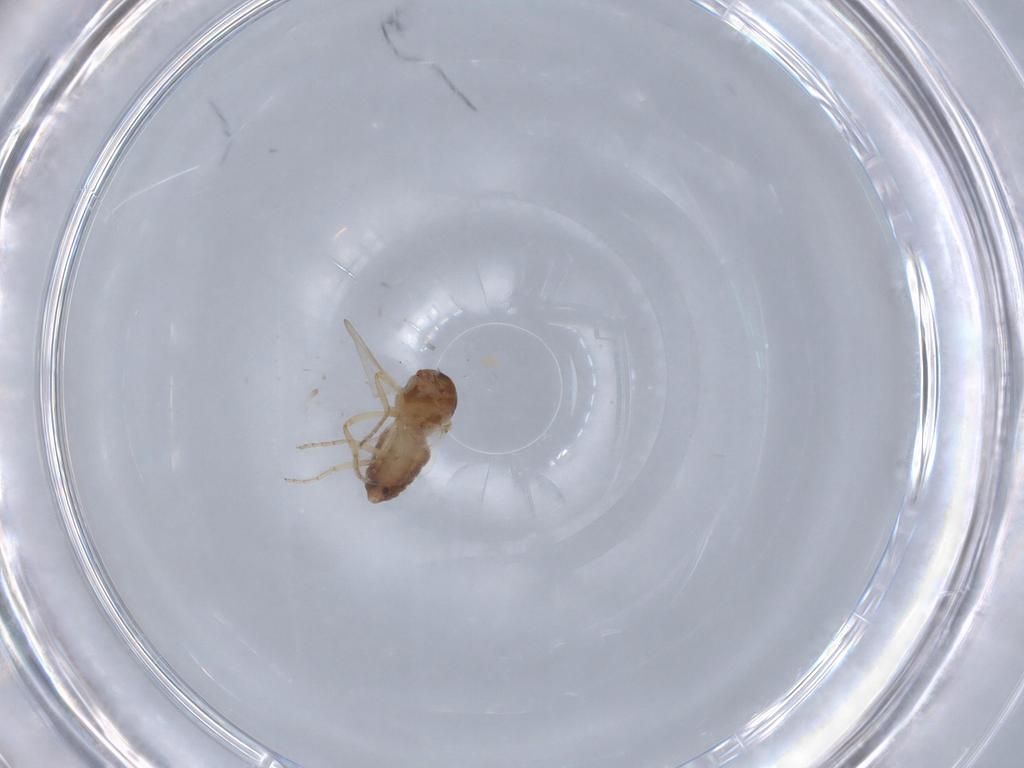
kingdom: Animalia
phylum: Arthropoda
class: Insecta
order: Diptera
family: Ceratopogonidae
